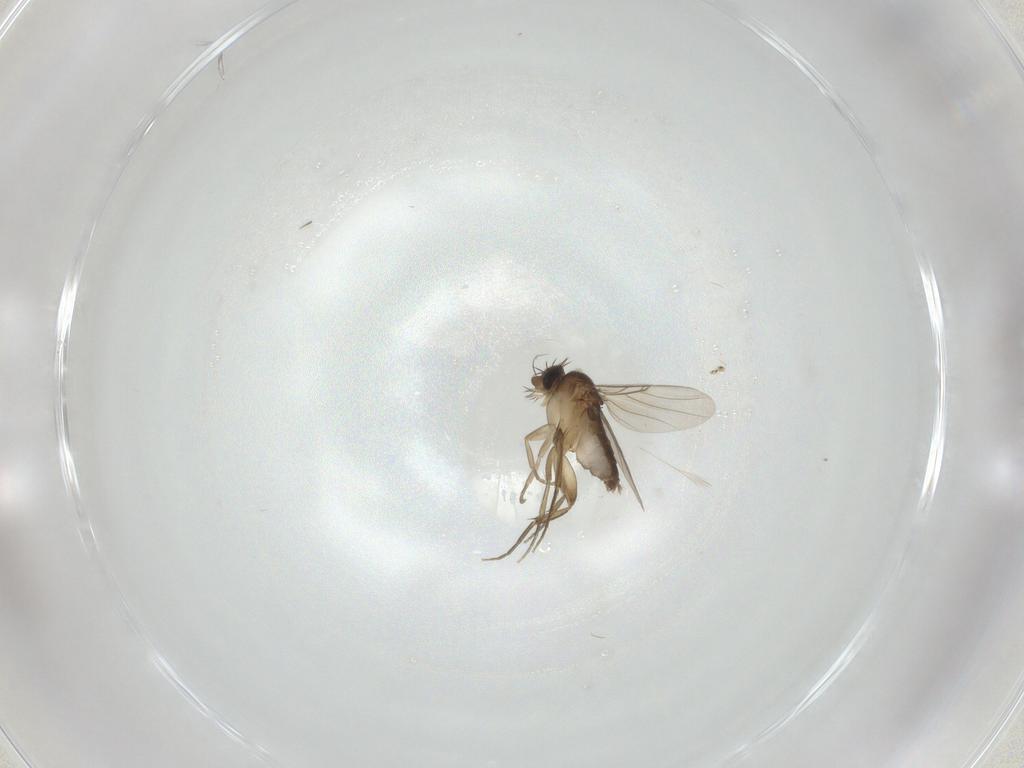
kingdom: Animalia
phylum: Arthropoda
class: Insecta
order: Diptera
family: Phoridae
